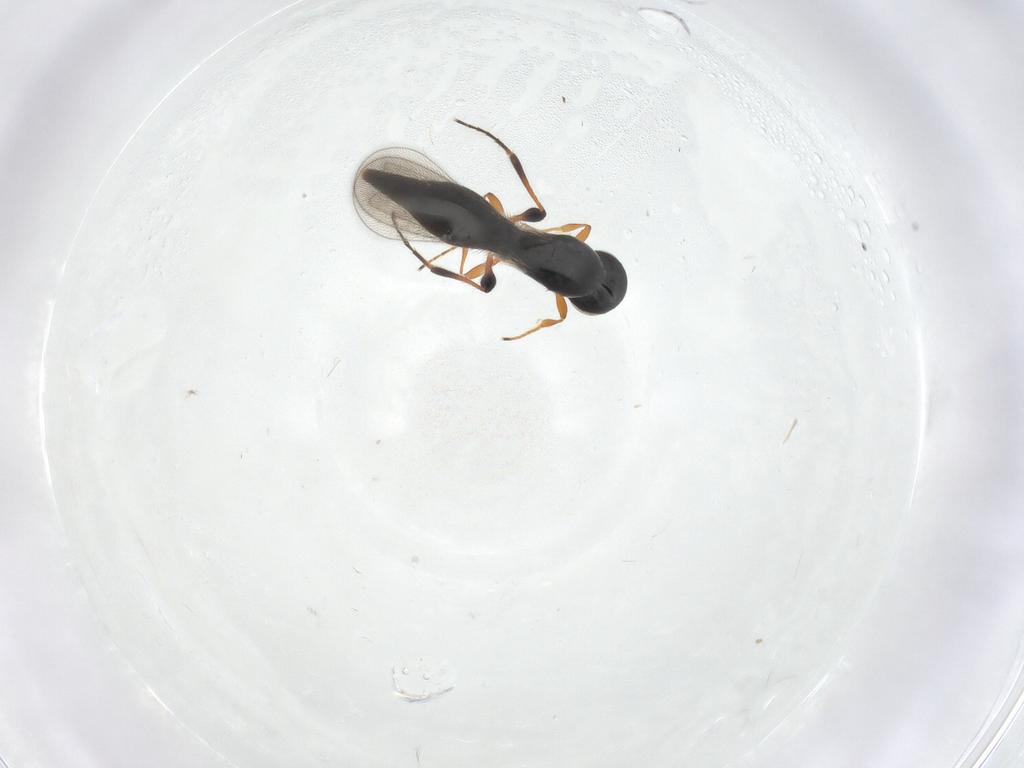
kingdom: Animalia
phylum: Arthropoda
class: Insecta
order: Hymenoptera
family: Platygastridae
